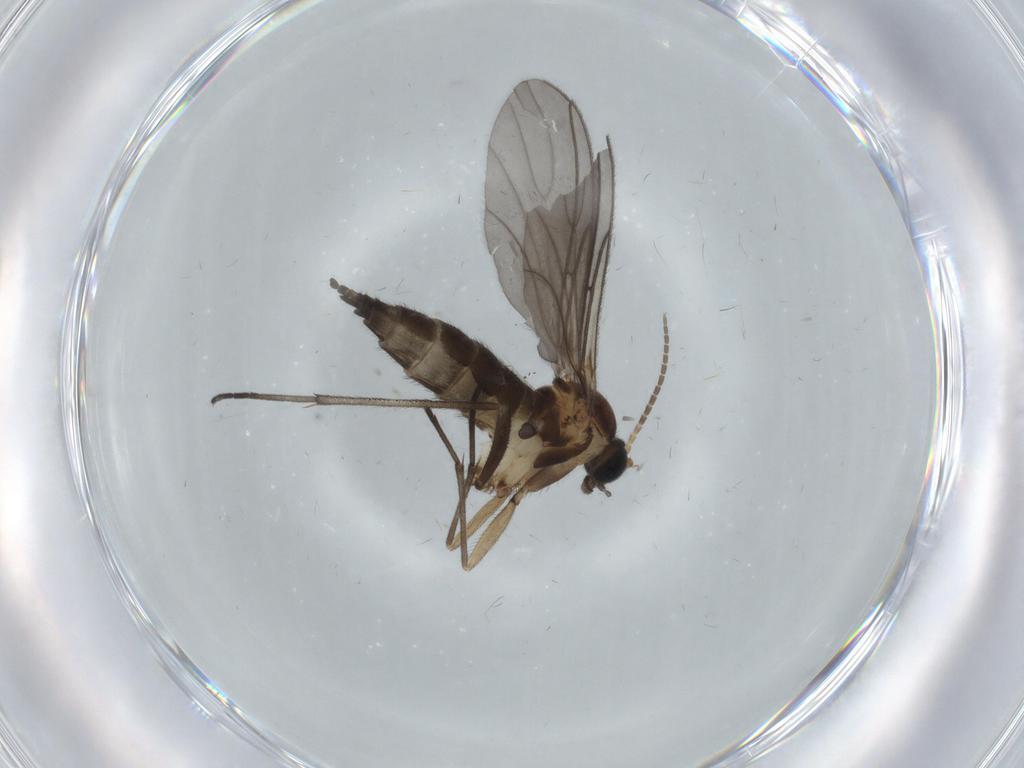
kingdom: Animalia
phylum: Arthropoda
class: Insecta
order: Diptera
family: Sciaridae
